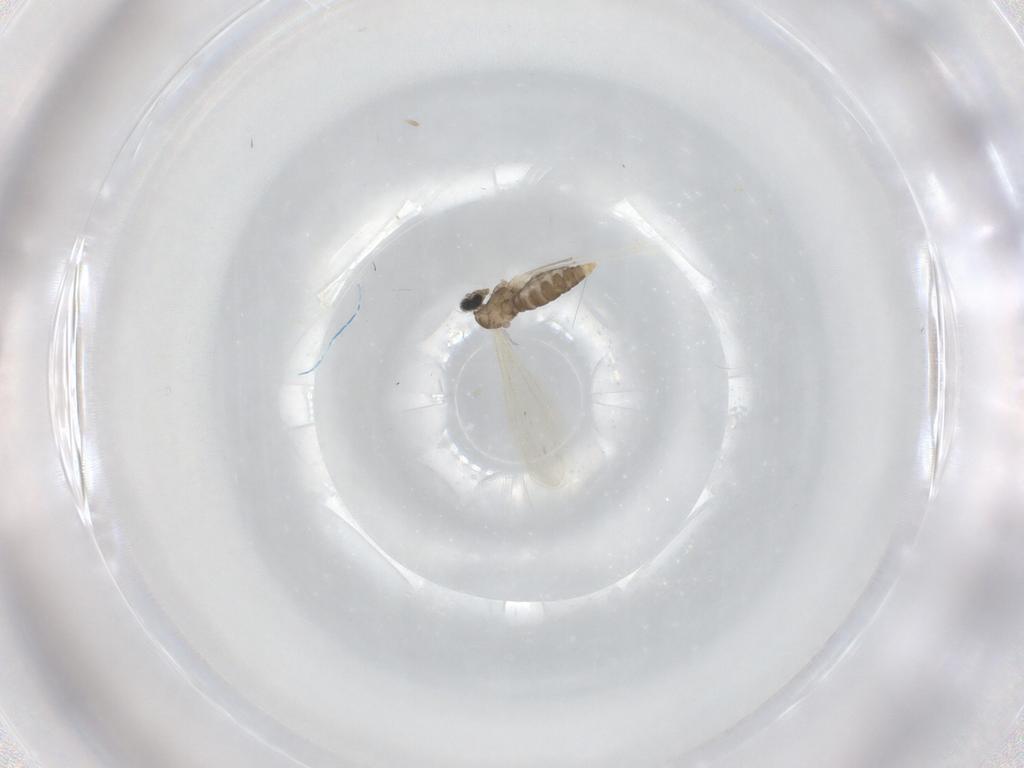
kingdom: Animalia
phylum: Arthropoda
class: Insecta
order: Diptera
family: Cecidomyiidae
